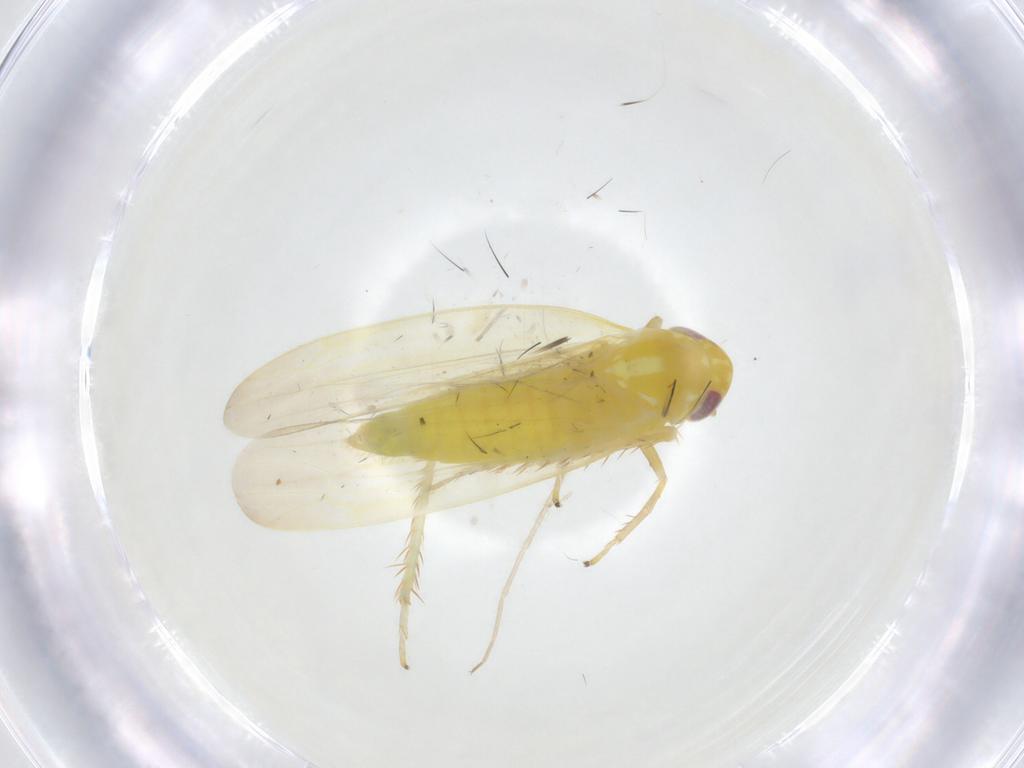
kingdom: Animalia
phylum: Arthropoda
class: Insecta
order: Hemiptera
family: Cicadellidae
